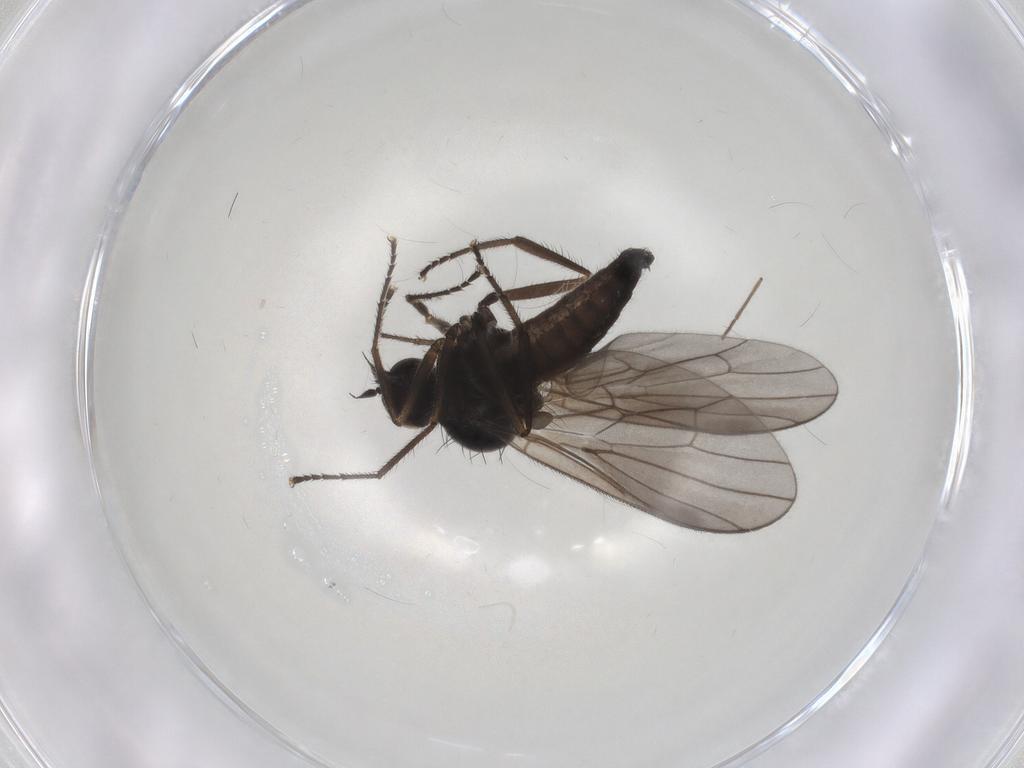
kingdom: Animalia
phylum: Arthropoda
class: Insecta
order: Diptera
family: Hybotidae
